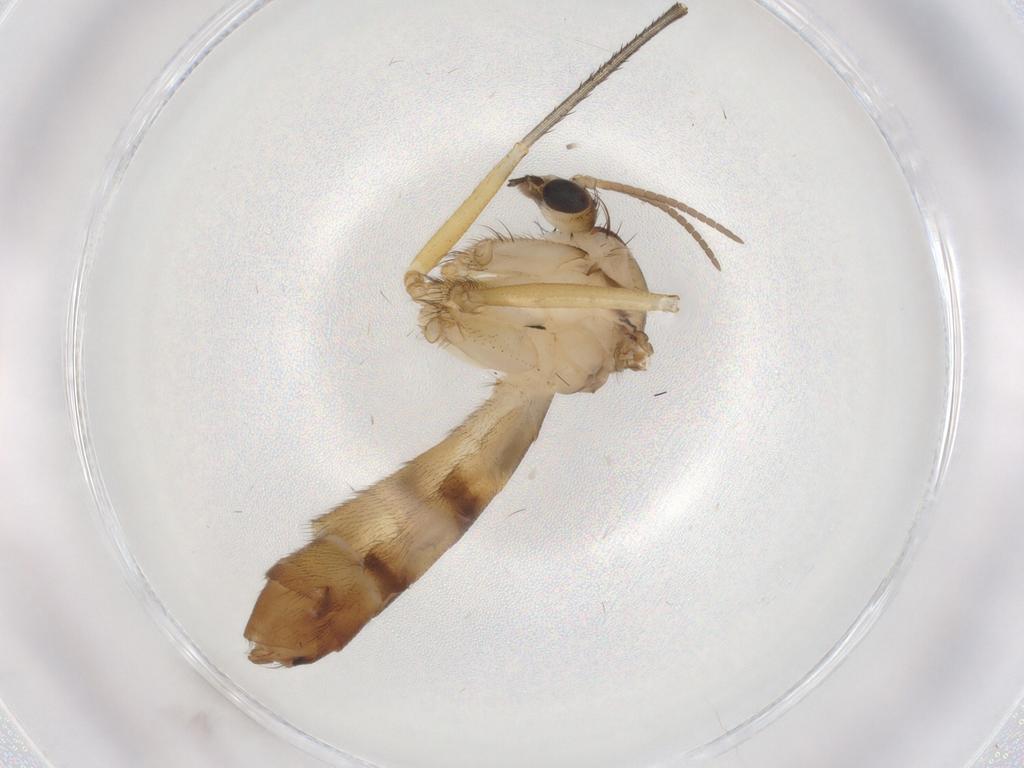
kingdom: Animalia
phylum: Arthropoda
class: Insecta
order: Diptera
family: Mycetophilidae
